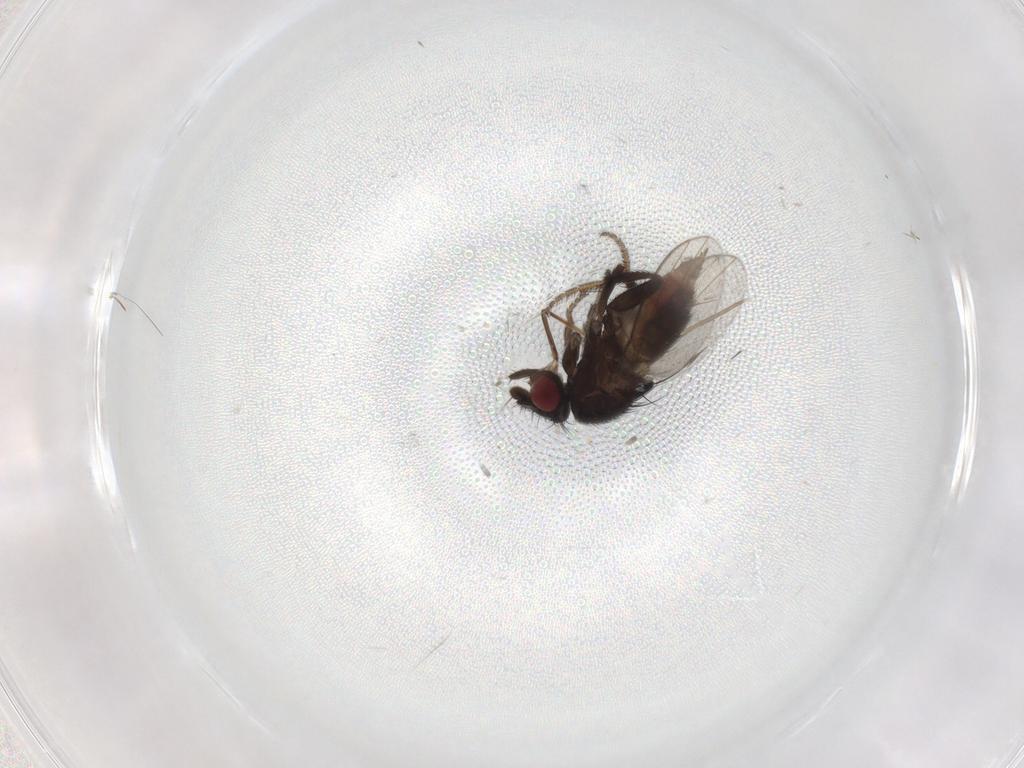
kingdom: Animalia
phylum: Arthropoda
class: Insecta
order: Diptera
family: Milichiidae
